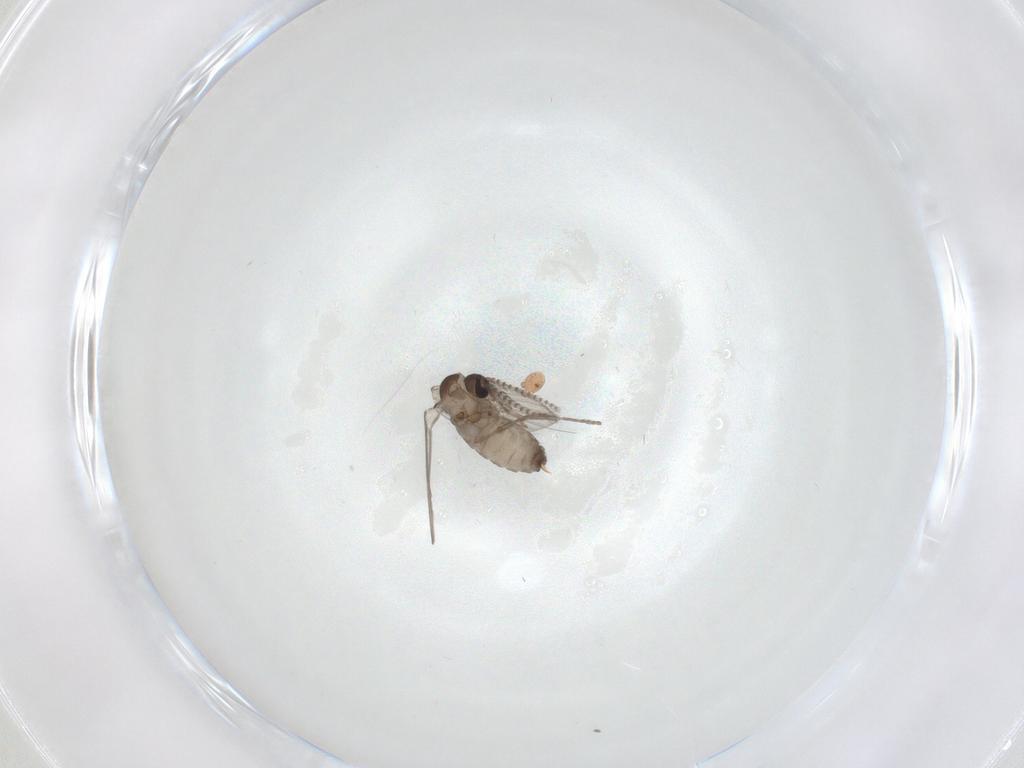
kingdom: Animalia
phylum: Arthropoda
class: Insecta
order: Diptera
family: Psychodidae
